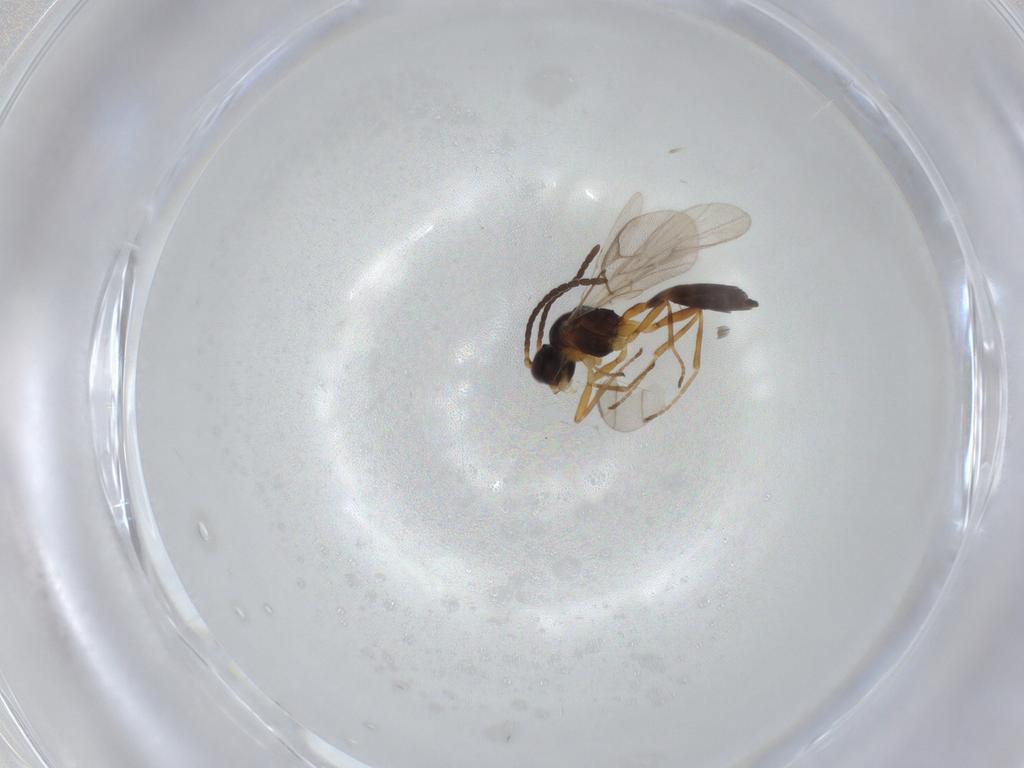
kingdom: Animalia
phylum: Arthropoda
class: Insecta
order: Hymenoptera
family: Braconidae
